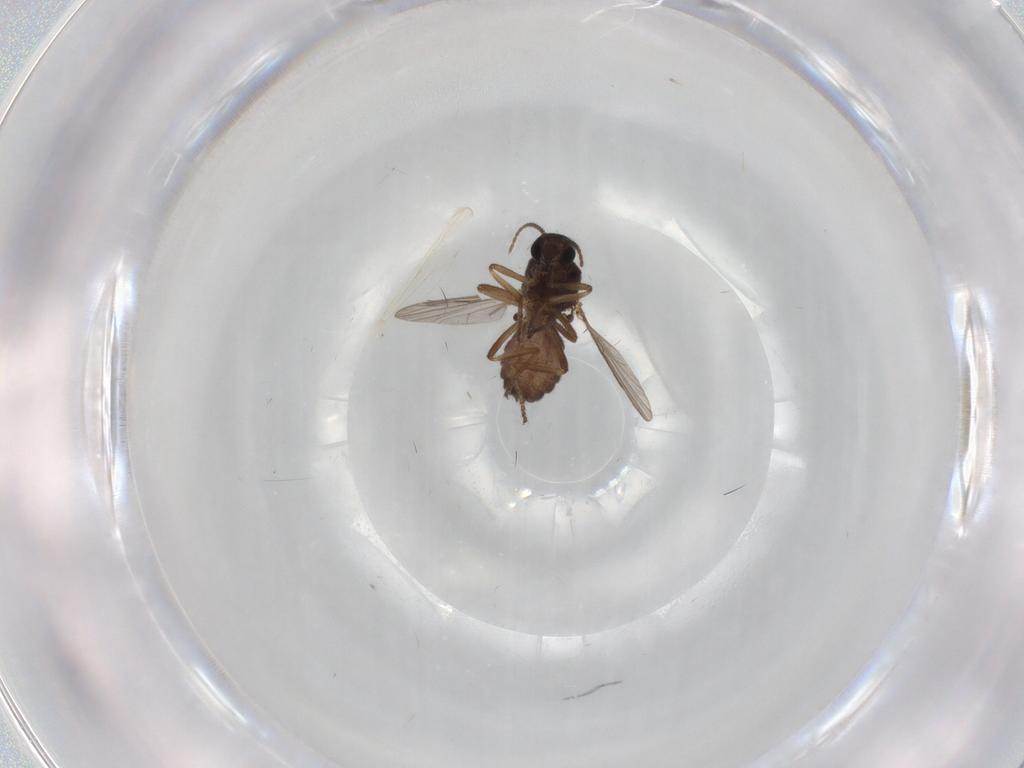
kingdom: Animalia
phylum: Arthropoda
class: Insecta
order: Diptera
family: Ceratopogonidae
